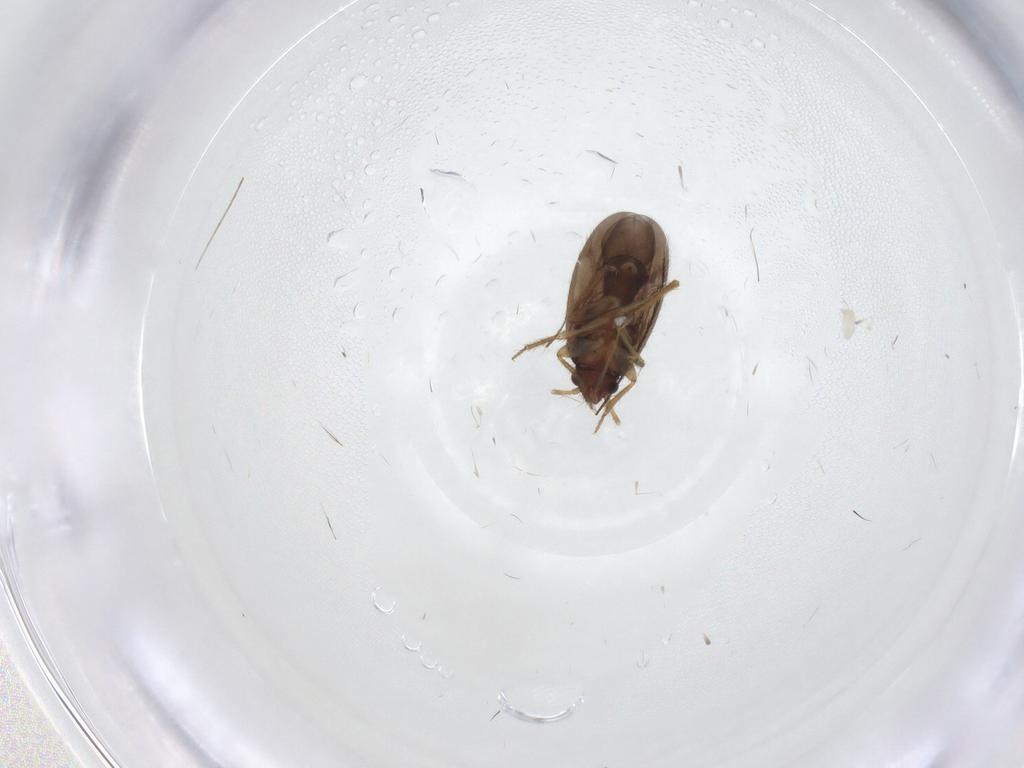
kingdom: Animalia
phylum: Arthropoda
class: Insecta
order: Hemiptera
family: Ceratocombidae
